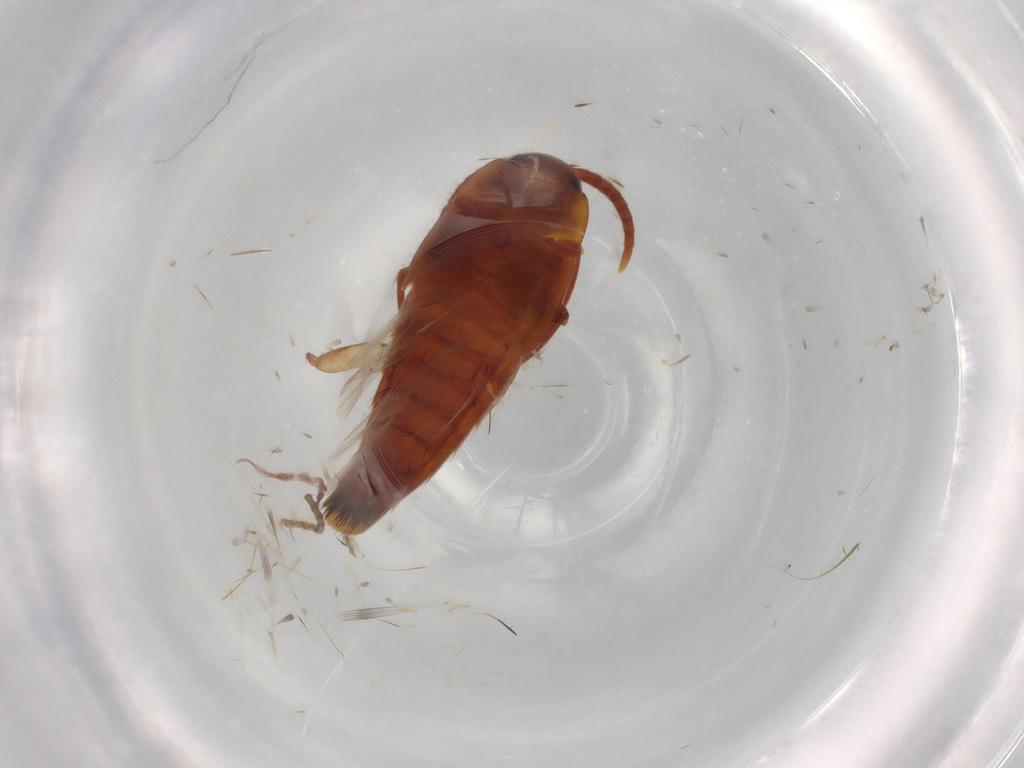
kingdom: Animalia
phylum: Arthropoda
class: Insecta
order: Coleoptera
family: Staphylinidae
